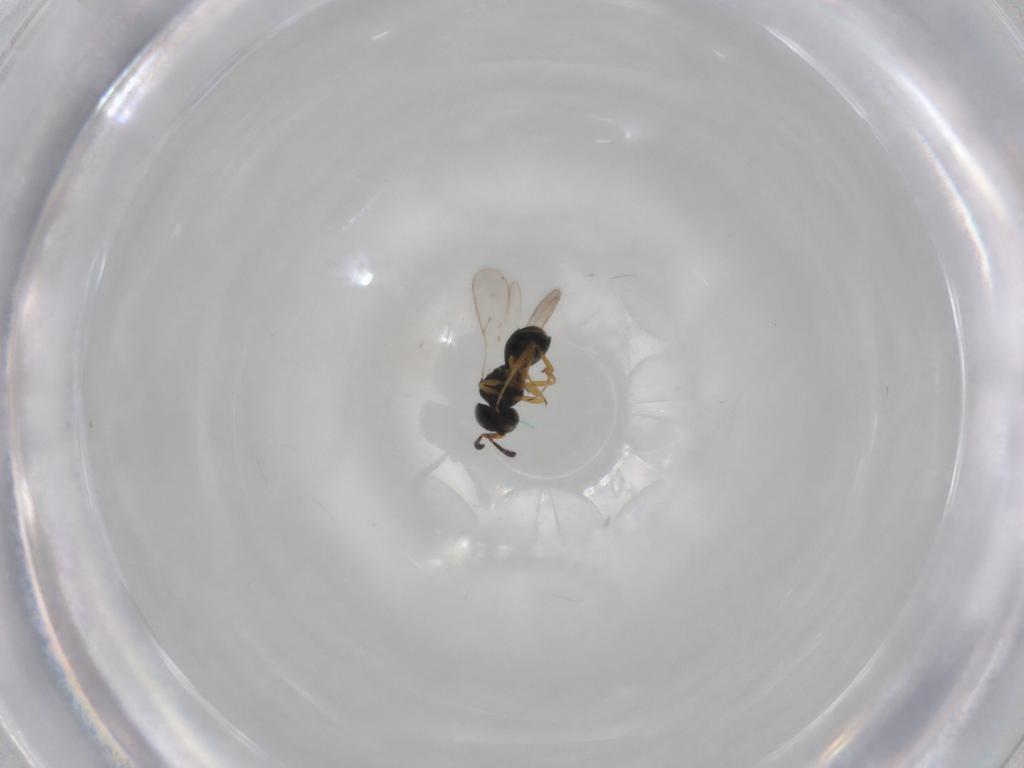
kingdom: Animalia
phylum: Arthropoda
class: Insecta
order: Hymenoptera
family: Scelionidae
